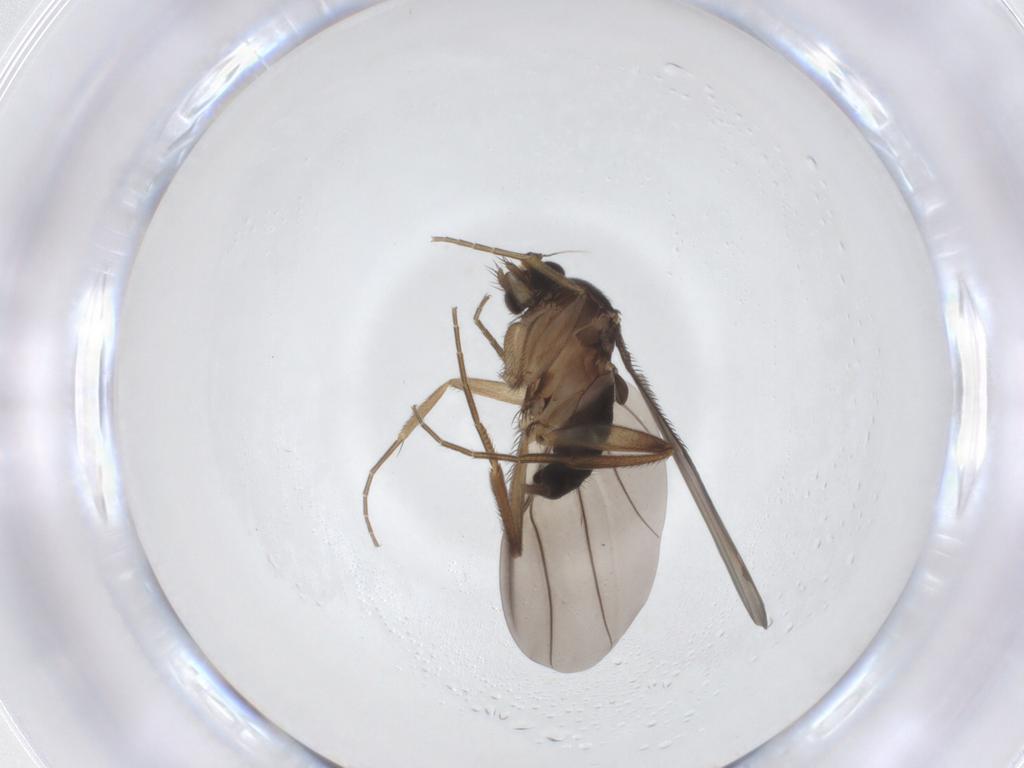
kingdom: Animalia
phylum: Arthropoda
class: Insecta
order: Diptera
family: Phoridae
